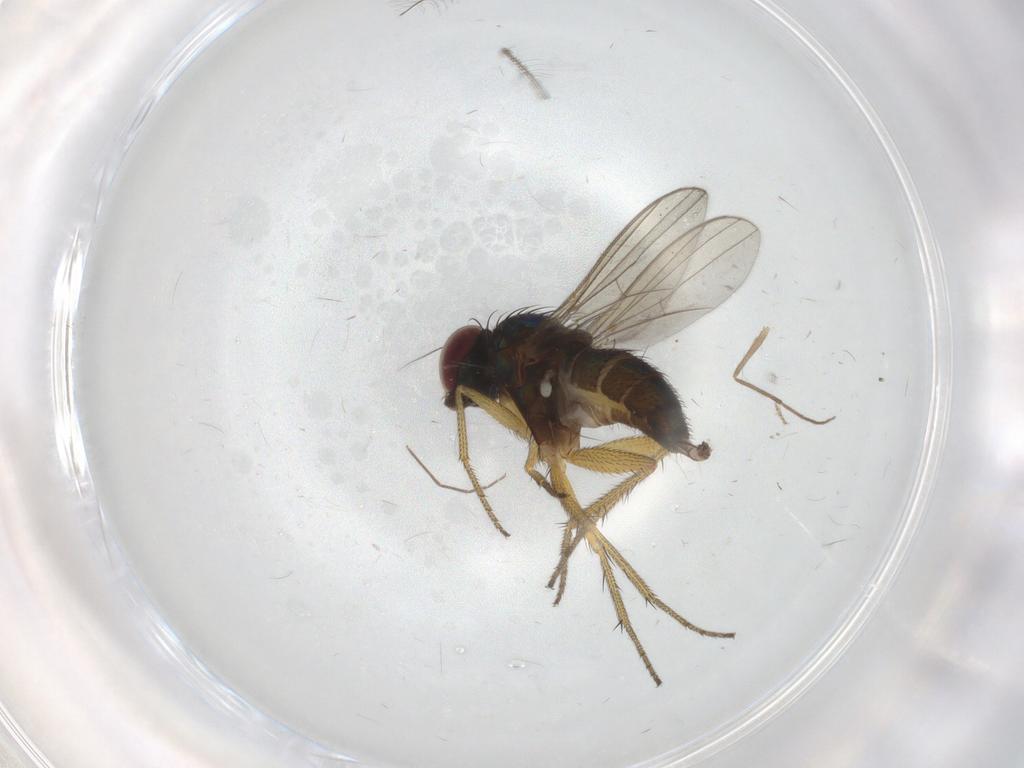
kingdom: Animalia
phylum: Arthropoda
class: Insecta
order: Diptera
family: Chironomidae
